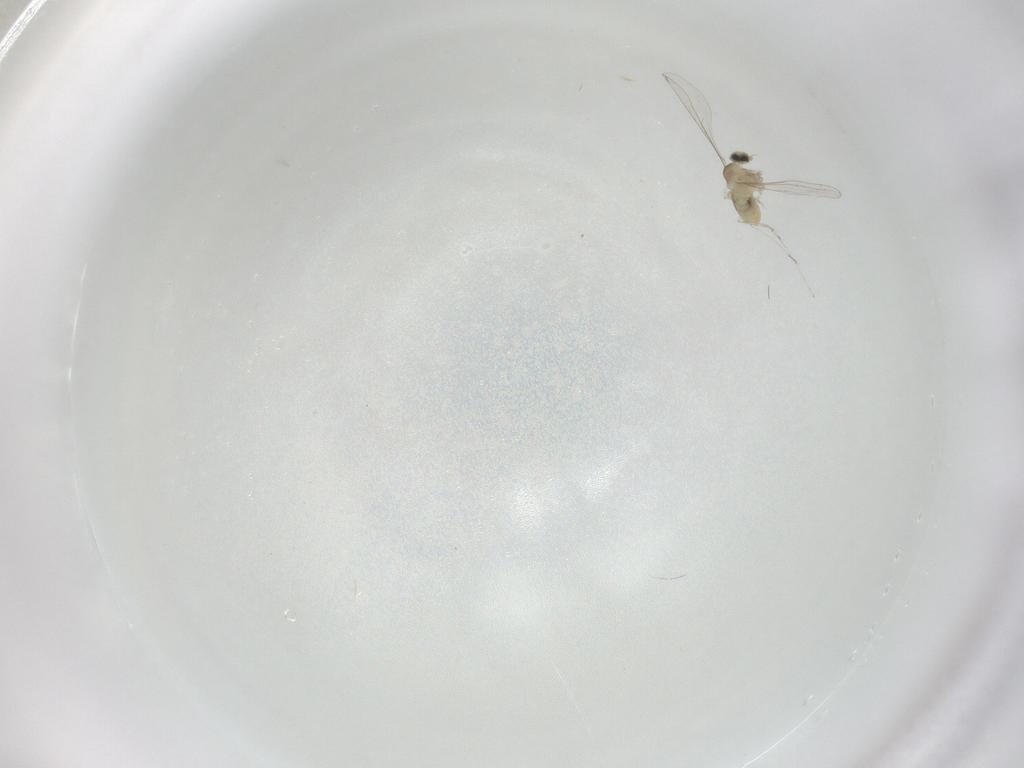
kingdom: Animalia
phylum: Arthropoda
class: Insecta
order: Diptera
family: Cecidomyiidae
